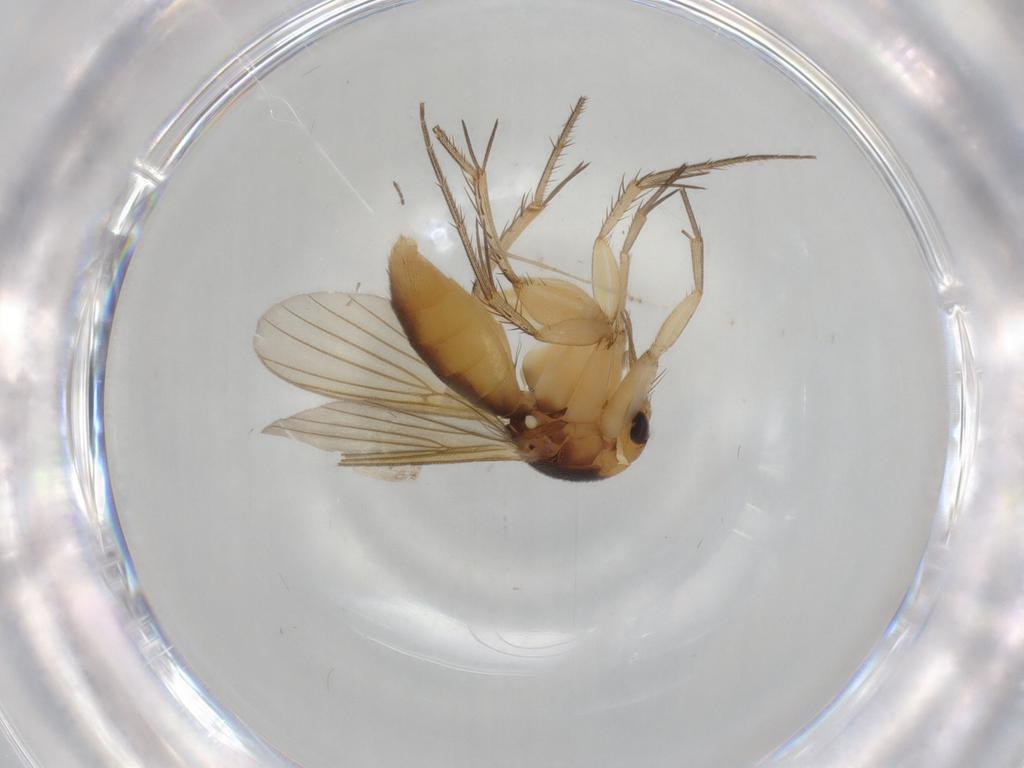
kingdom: Animalia
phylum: Arthropoda
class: Insecta
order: Diptera
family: Mycetophilidae
